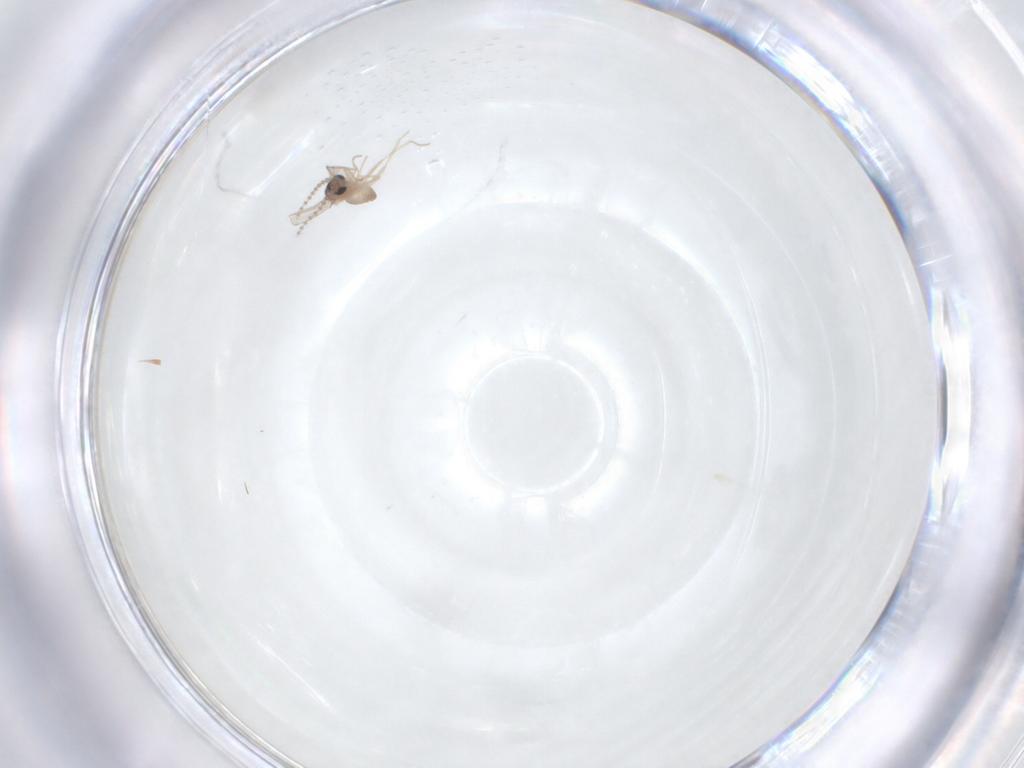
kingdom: Animalia
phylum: Arthropoda
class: Insecta
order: Diptera
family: Cecidomyiidae
